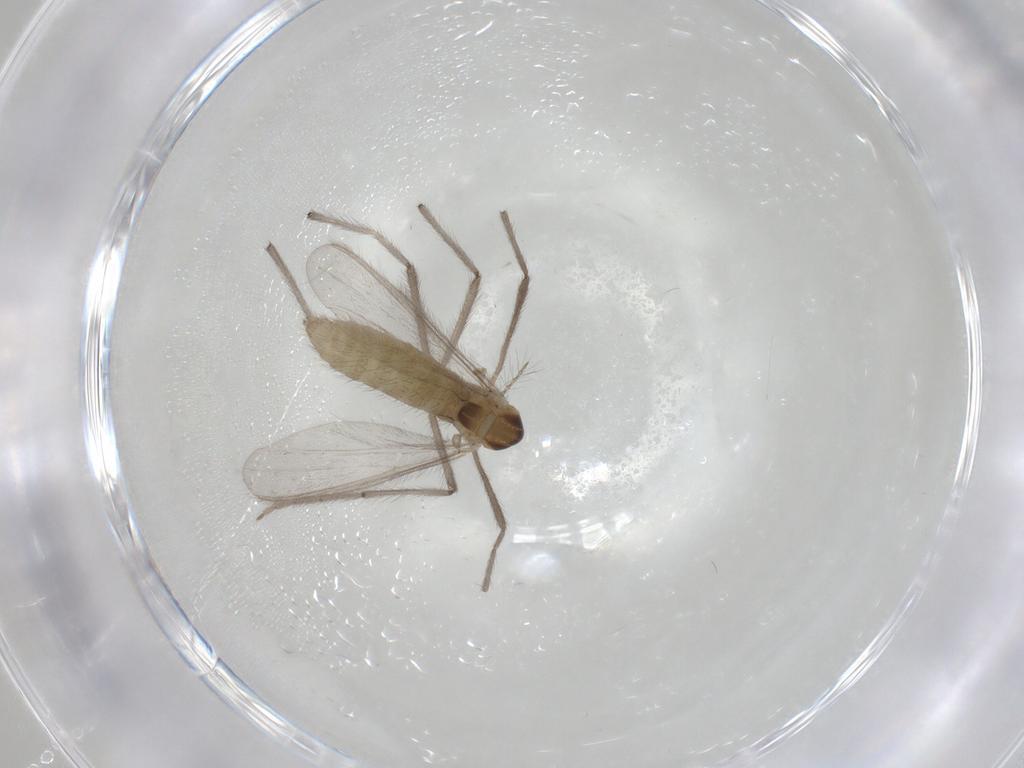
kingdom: Animalia
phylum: Arthropoda
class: Insecta
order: Diptera
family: Chironomidae
